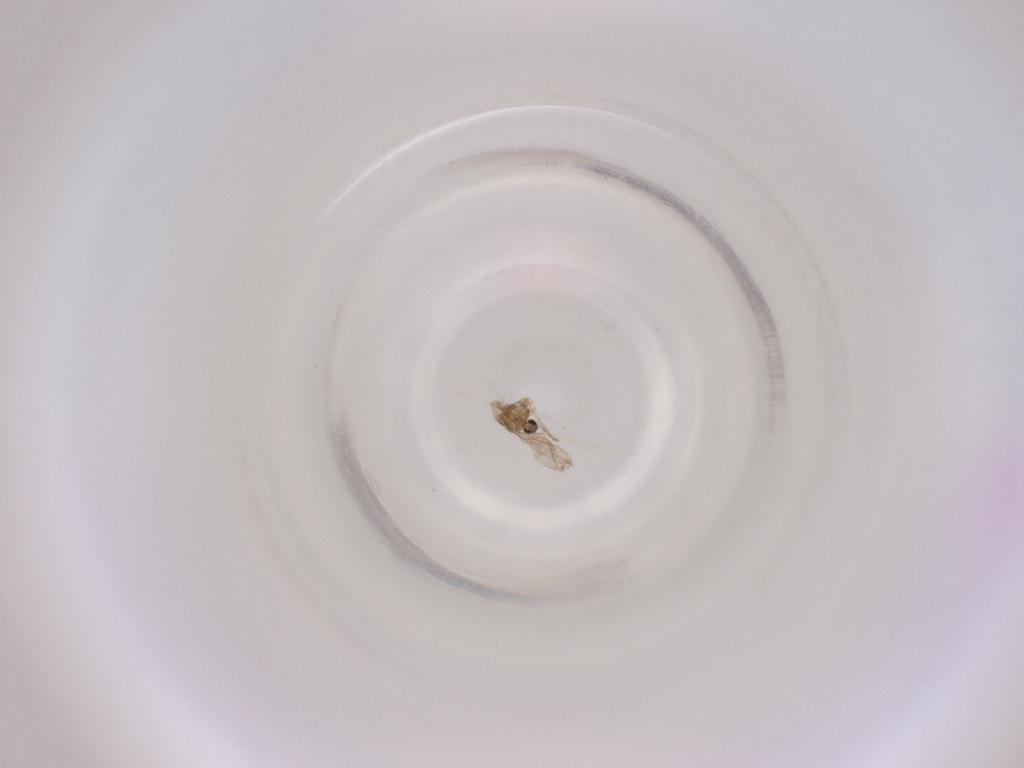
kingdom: Animalia
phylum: Arthropoda
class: Insecta
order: Diptera
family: Cecidomyiidae
